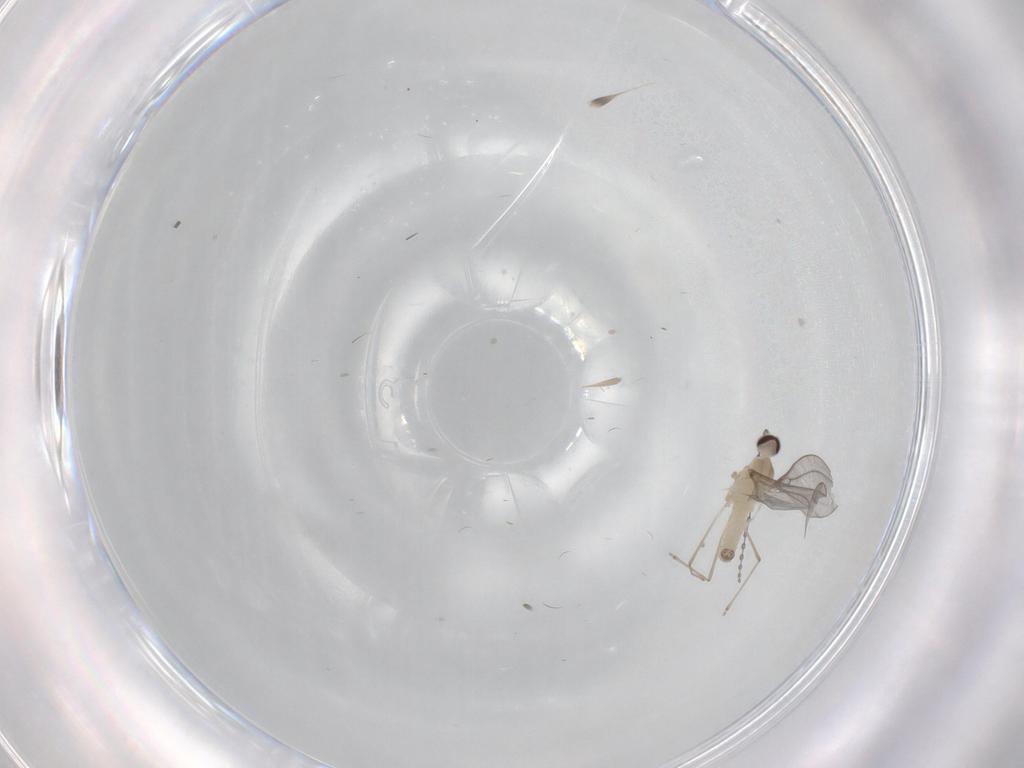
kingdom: Animalia
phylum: Arthropoda
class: Insecta
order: Diptera
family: Cecidomyiidae
